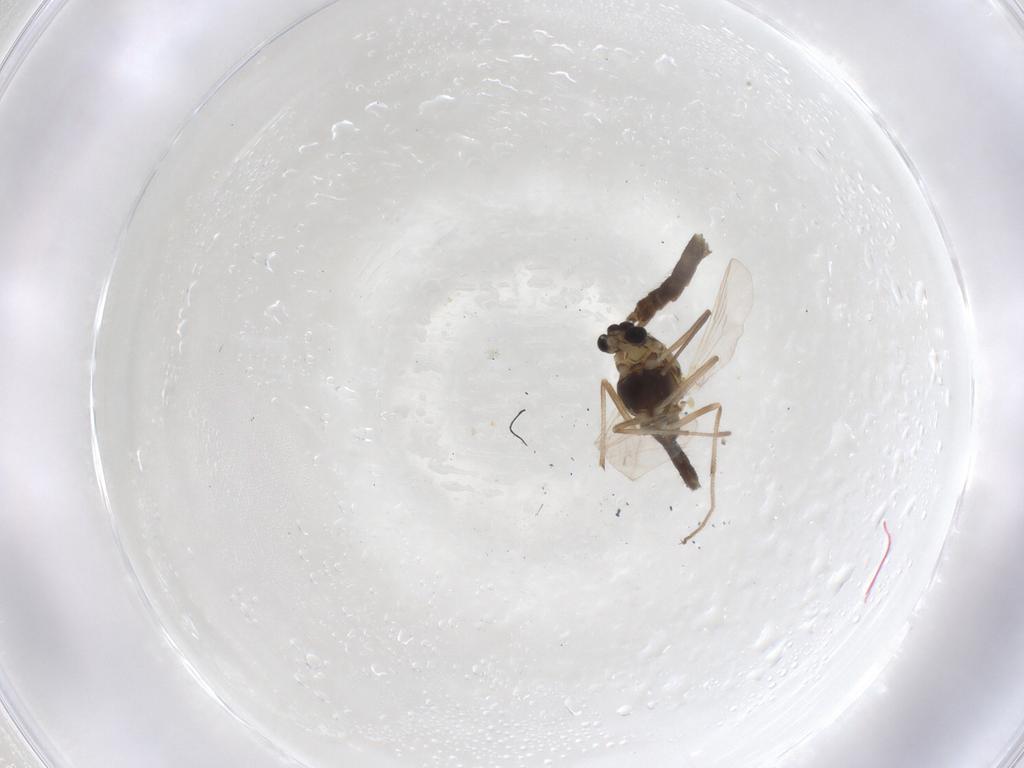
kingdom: Animalia
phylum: Arthropoda
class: Insecta
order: Diptera
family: Chironomidae
